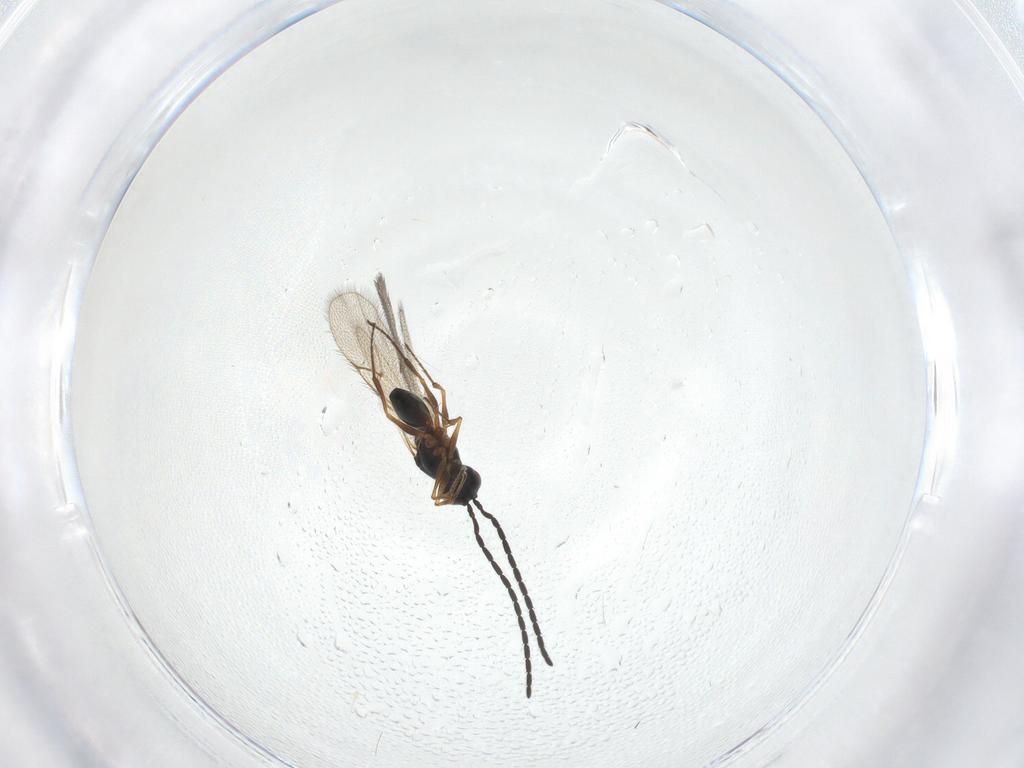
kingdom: Animalia
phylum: Arthropoda
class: Insecta
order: Hymenoptera
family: Figitidae
